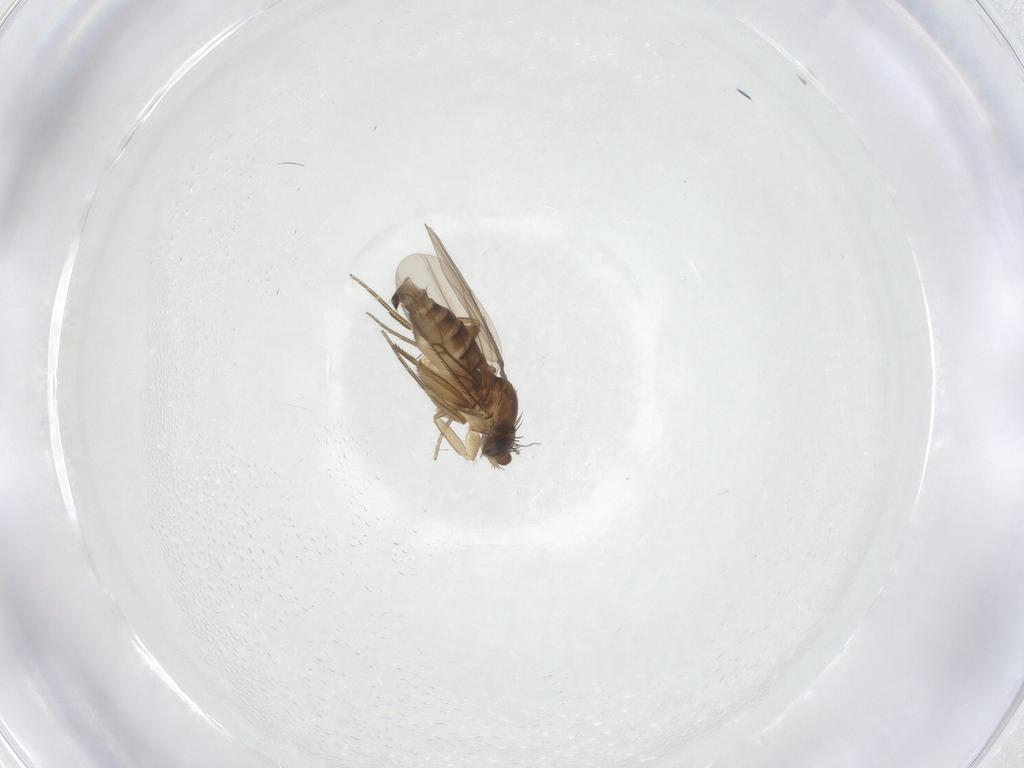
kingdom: Animalia
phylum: Arthropoda
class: Insecta
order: Diptera
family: Phoridae
